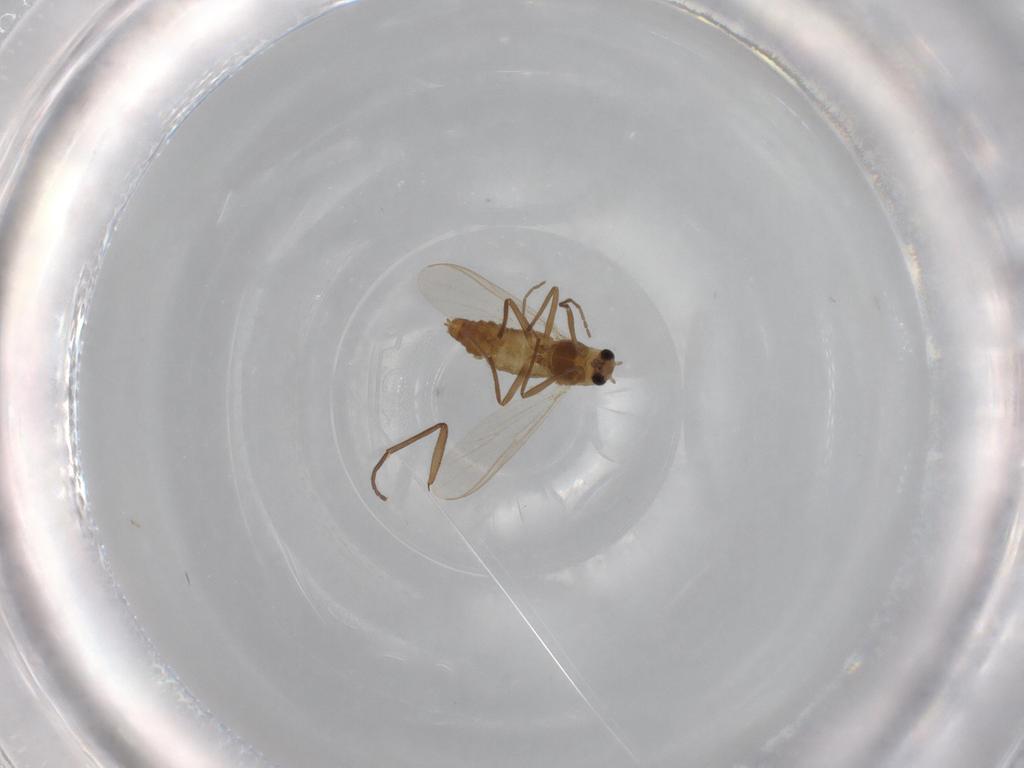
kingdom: Animalia
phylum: Arthropoda
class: Insecta
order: Diptera
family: Chironomidae
